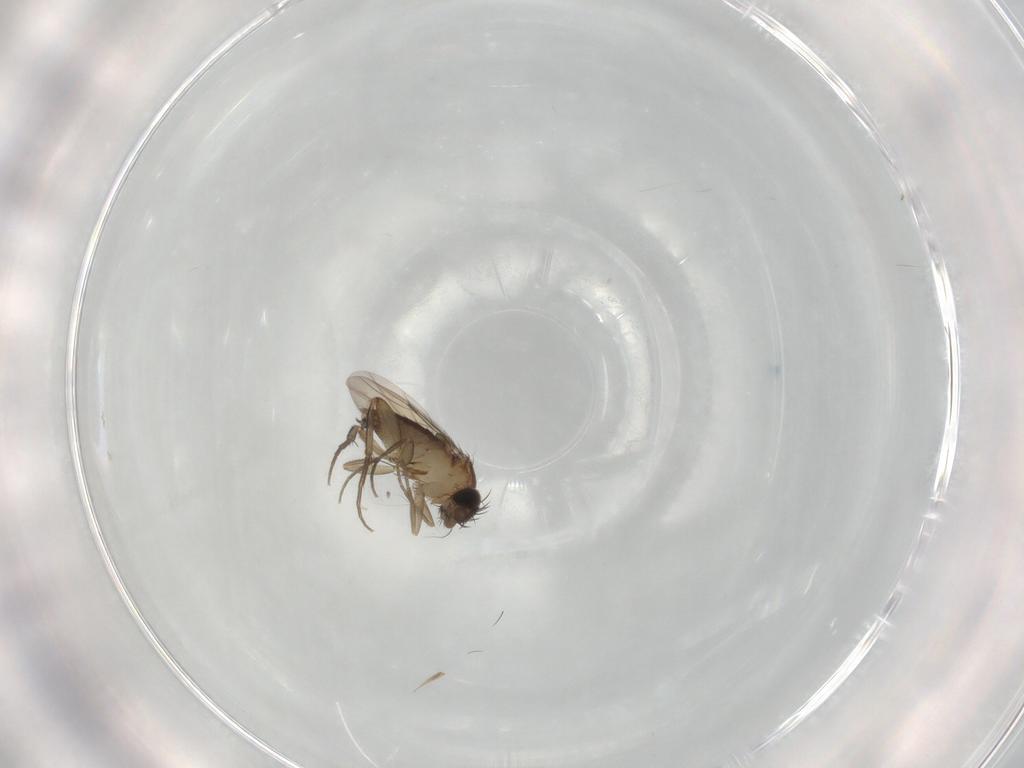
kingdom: Animalia
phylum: Arthropoda
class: Insecta
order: Diptera
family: Phoridae
